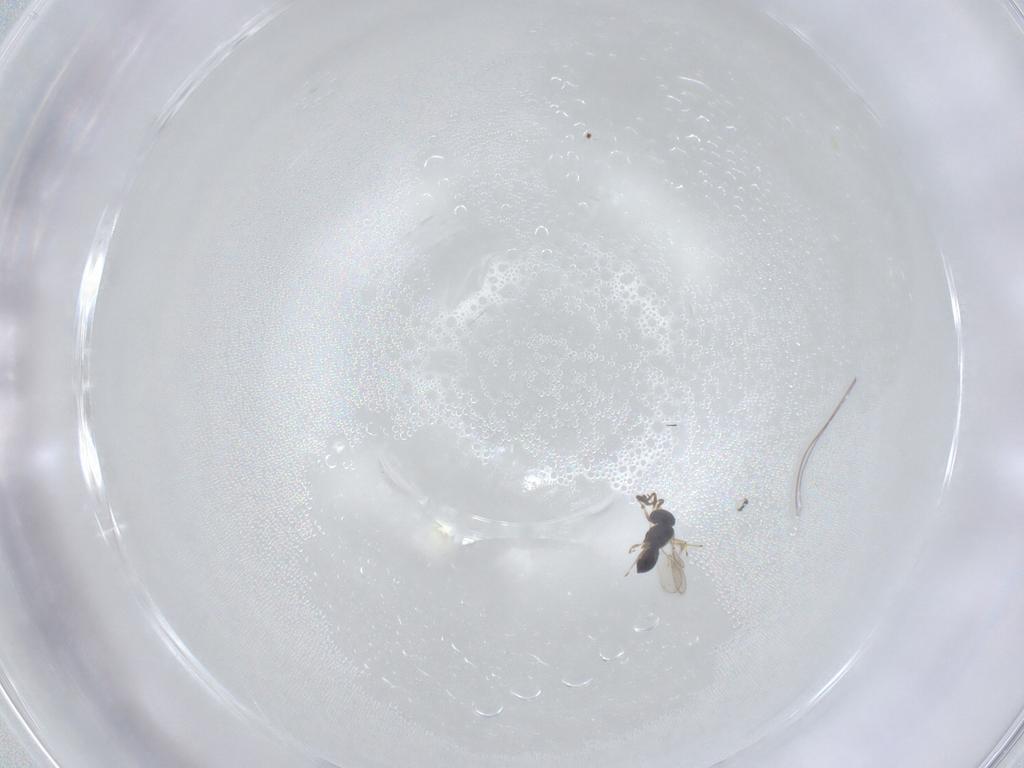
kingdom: Animalia
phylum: Arthropoda
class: Insecta
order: Hymenoptera
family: Scelionidae
